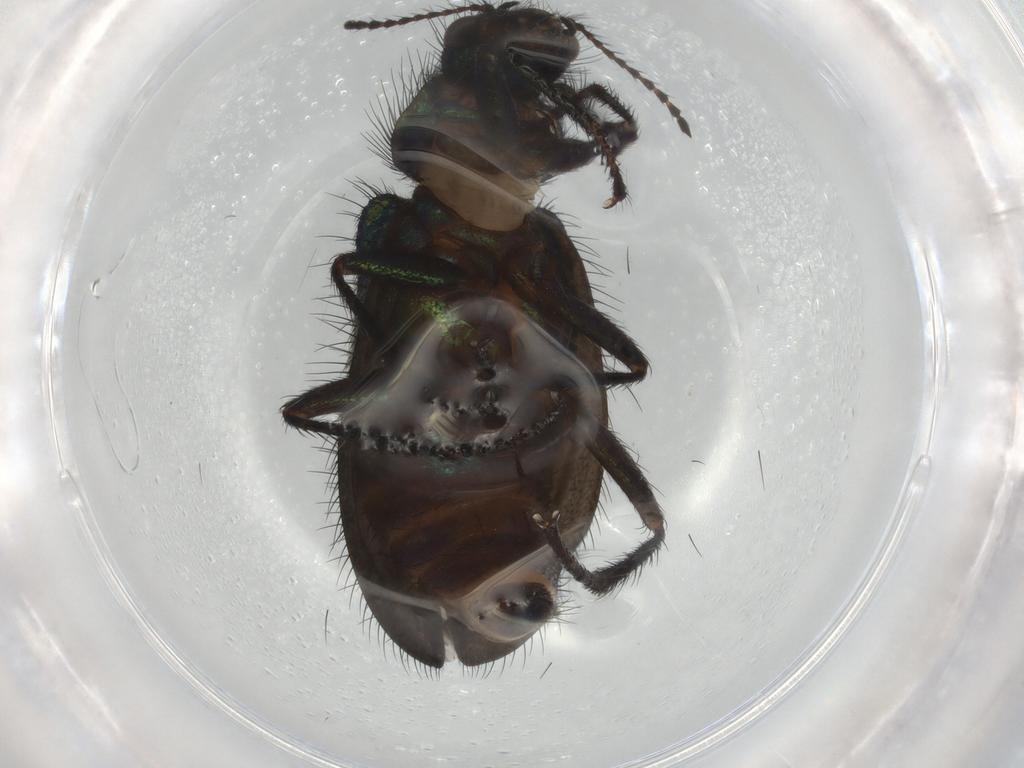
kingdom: Animalia
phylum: Arthropoda
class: Insecta
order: Coleoptera
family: Melyridae
